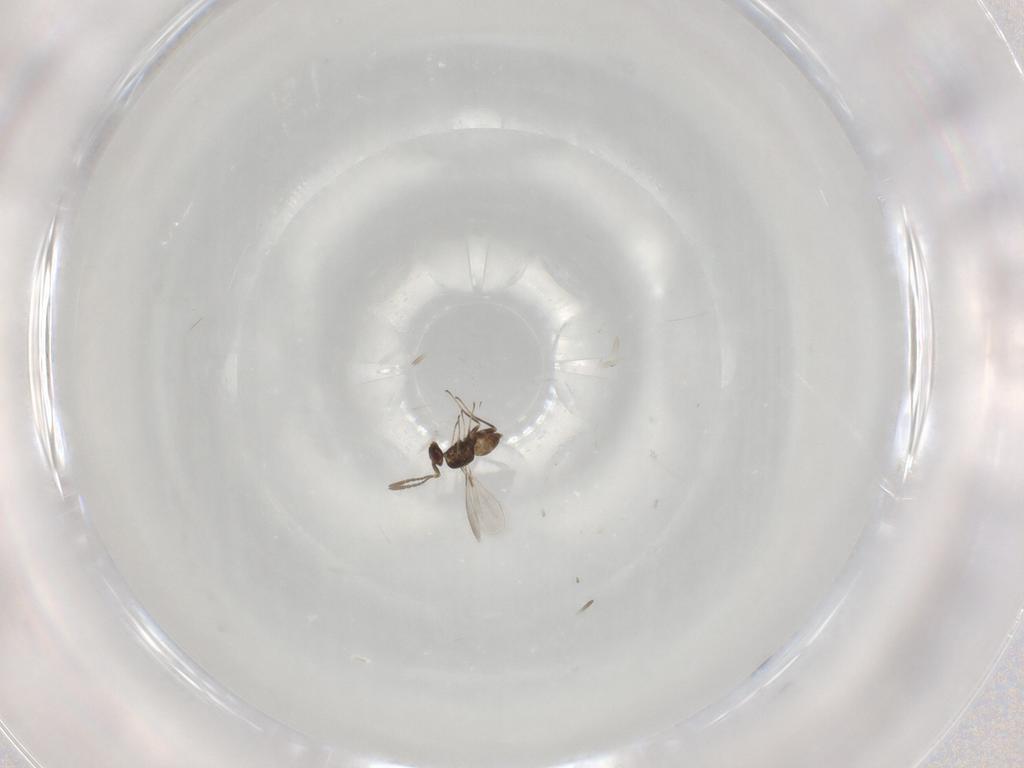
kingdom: Animalia
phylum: Arthropoda
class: Insecta
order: Hymenoptera
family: Mymaridae
